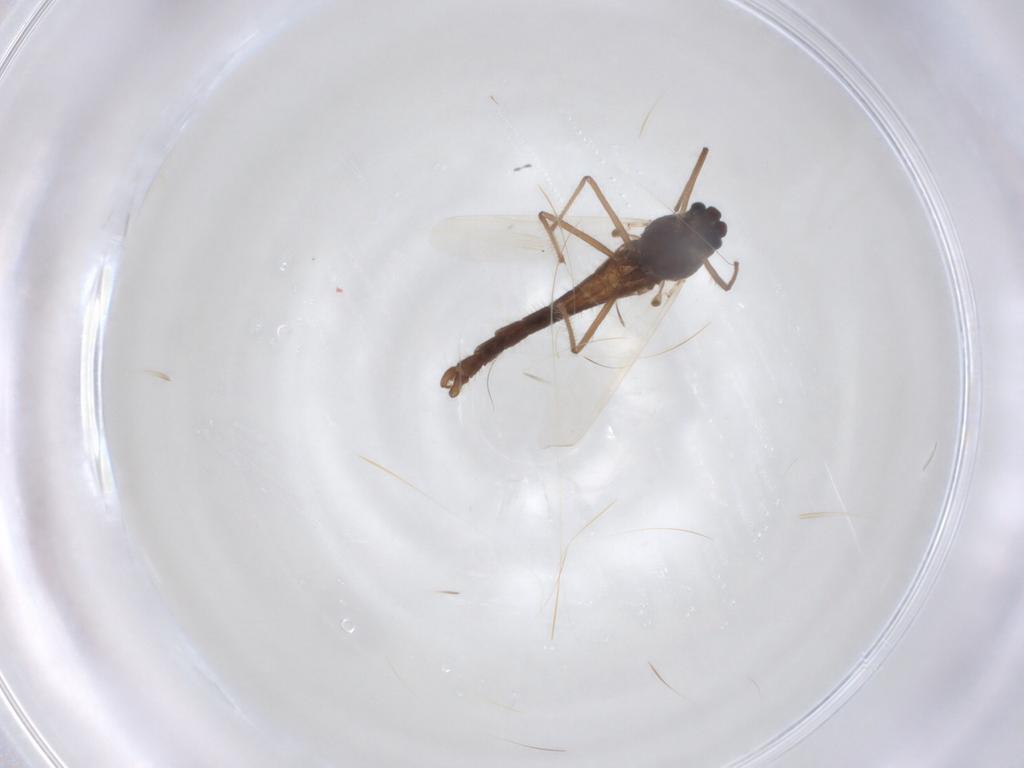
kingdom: Animalia
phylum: Arthropoda
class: Insecta
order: Diptera
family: Chironomidae
